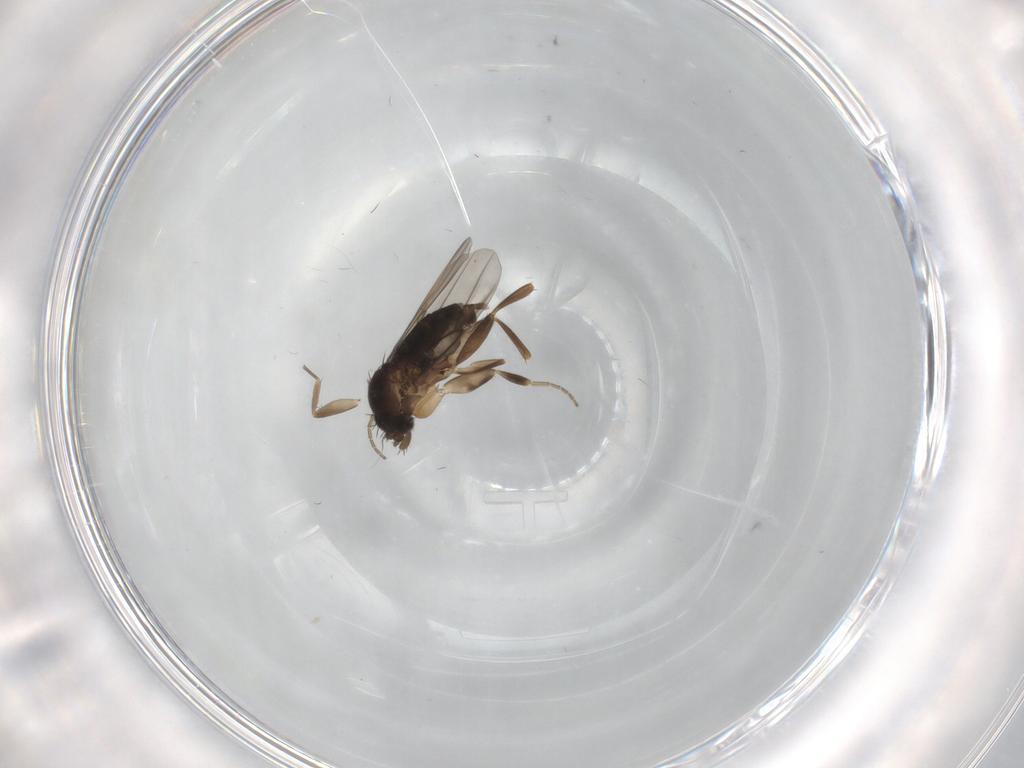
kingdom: Animalia
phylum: Arthropoda
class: Insecta
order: Diptera
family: Phoridae
